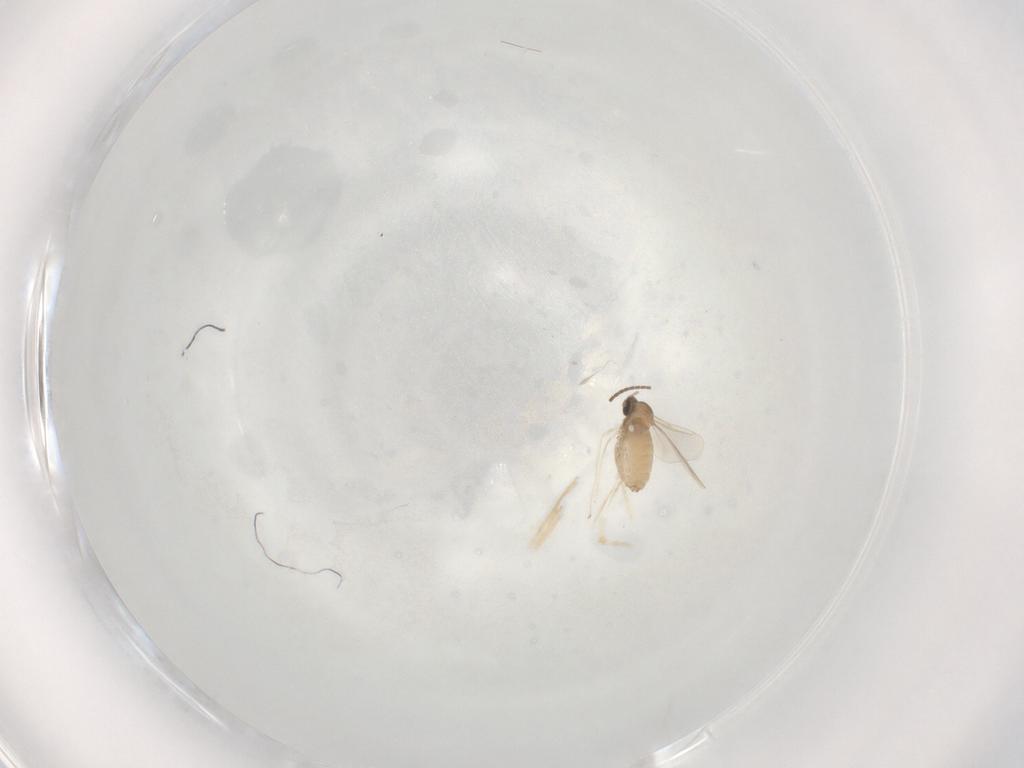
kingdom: Animalia
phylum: Arthropoda
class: Insecta
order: Diptera
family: Sciaridae
